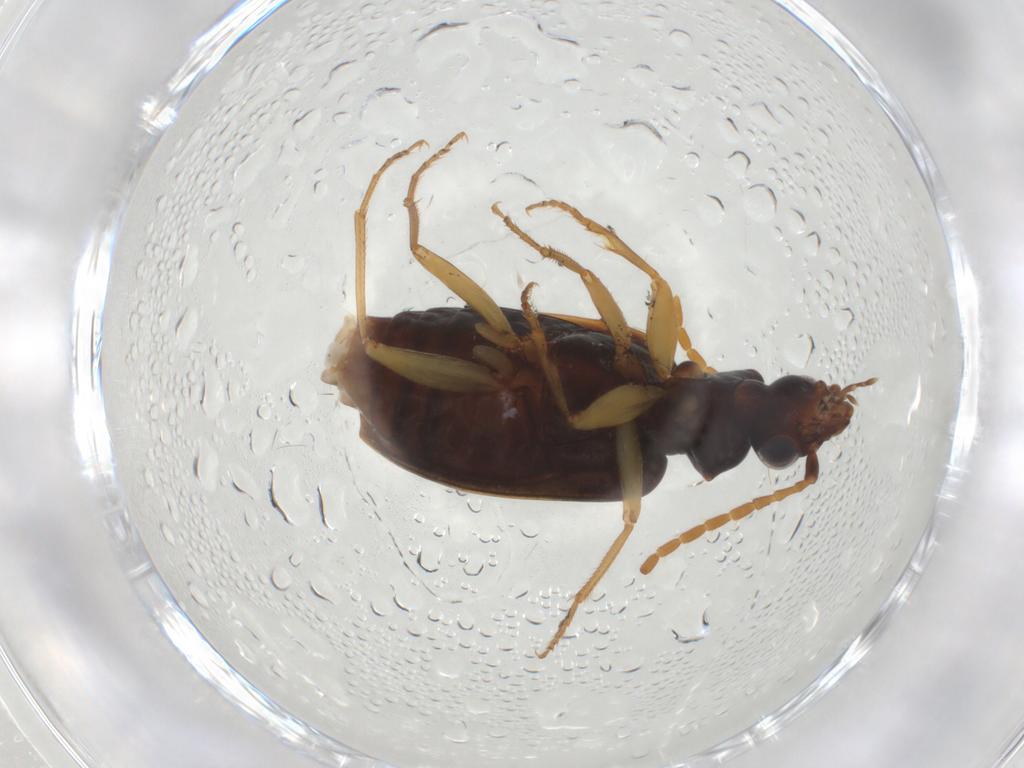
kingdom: Animalia
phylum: Arthropoda
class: Insecta
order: Coleoptera
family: Carabidae
